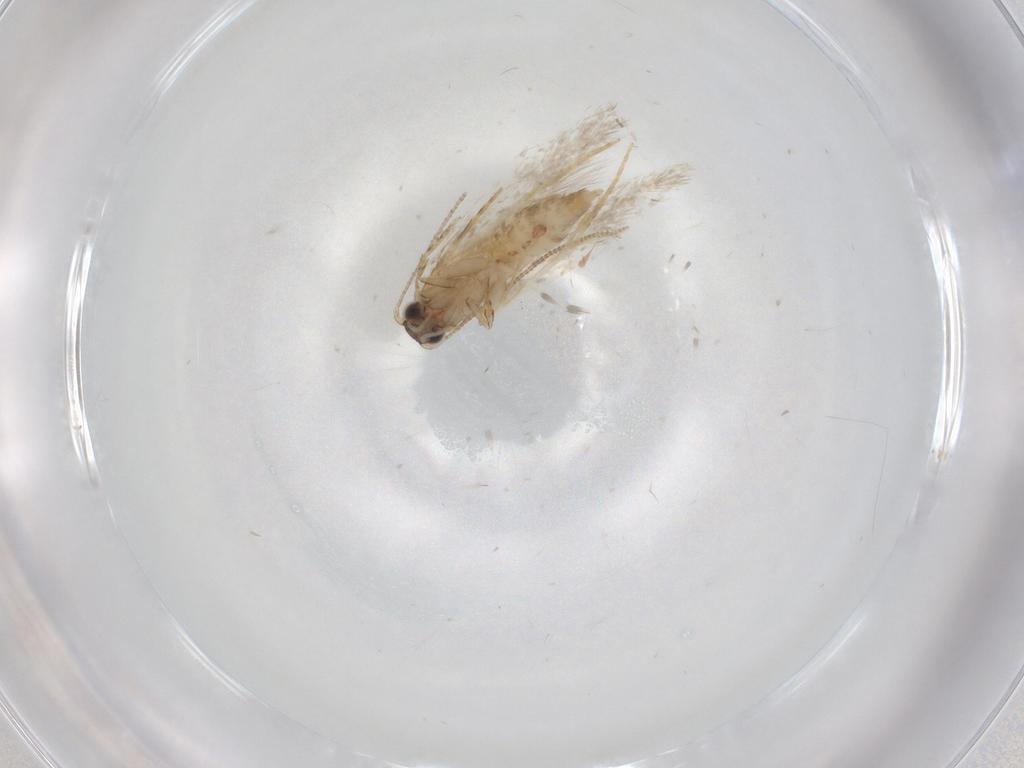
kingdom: Animalia
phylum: Arthropoda
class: Insecta
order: Lepidoptera
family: Tineidae
